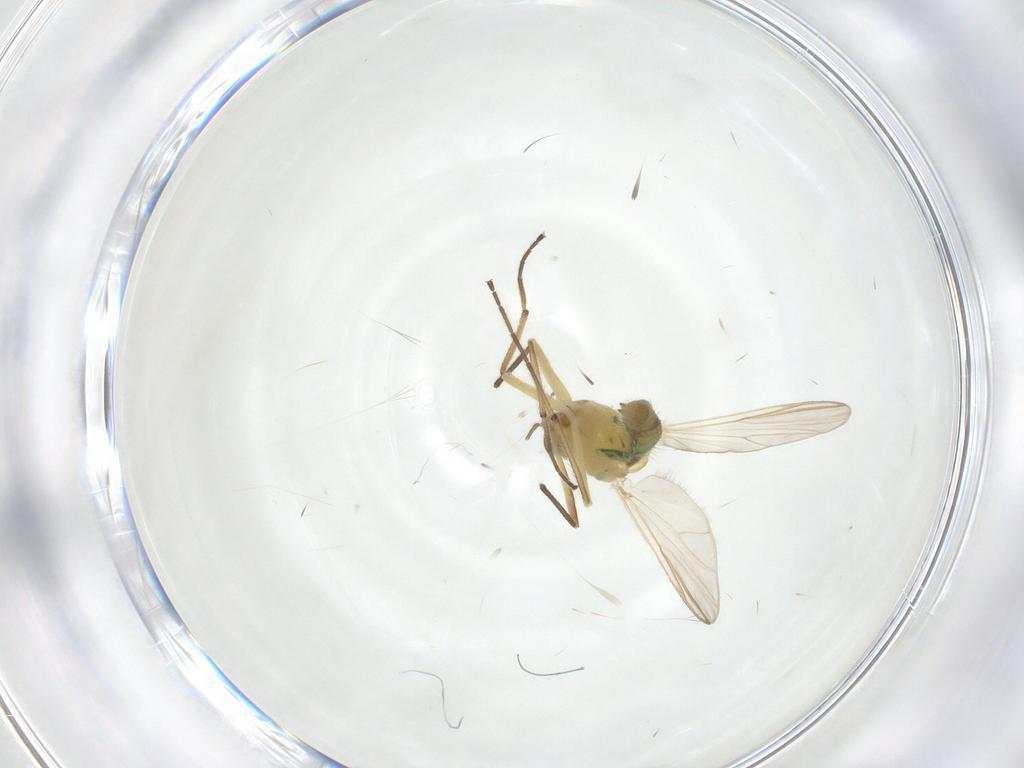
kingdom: Animalia
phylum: Arthropoda
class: Insecta
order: Diptera
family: Chironomidae
